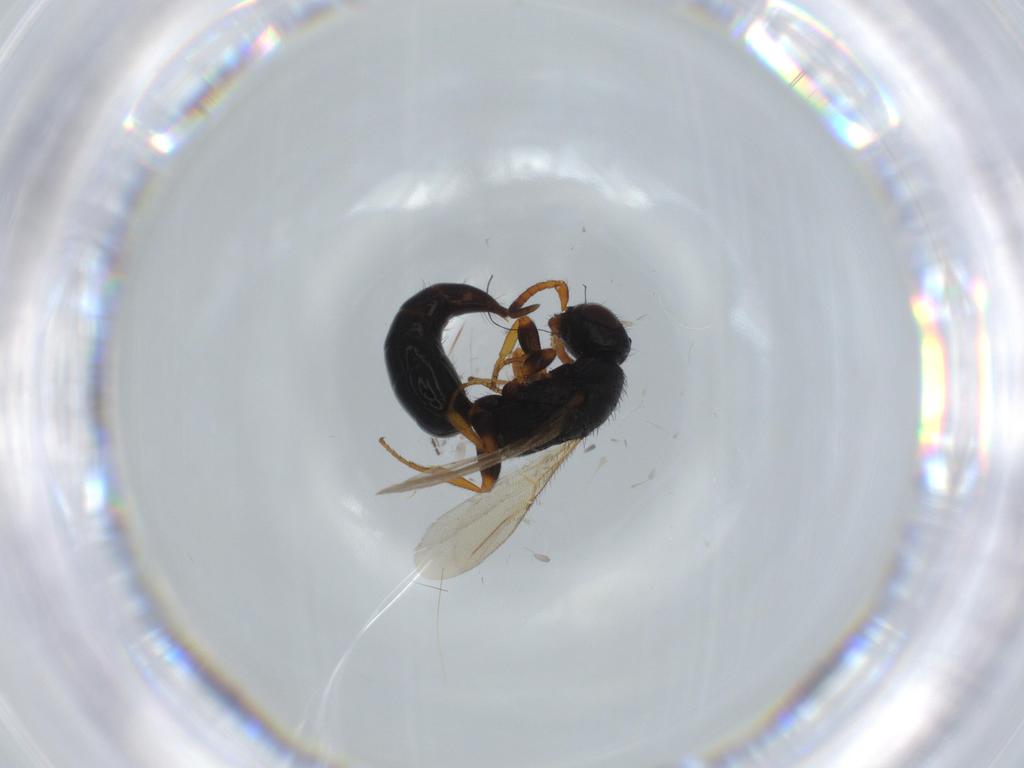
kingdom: Animalia
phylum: Arthropoda
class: Insecta
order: Hymenoptera
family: Bethylidae
